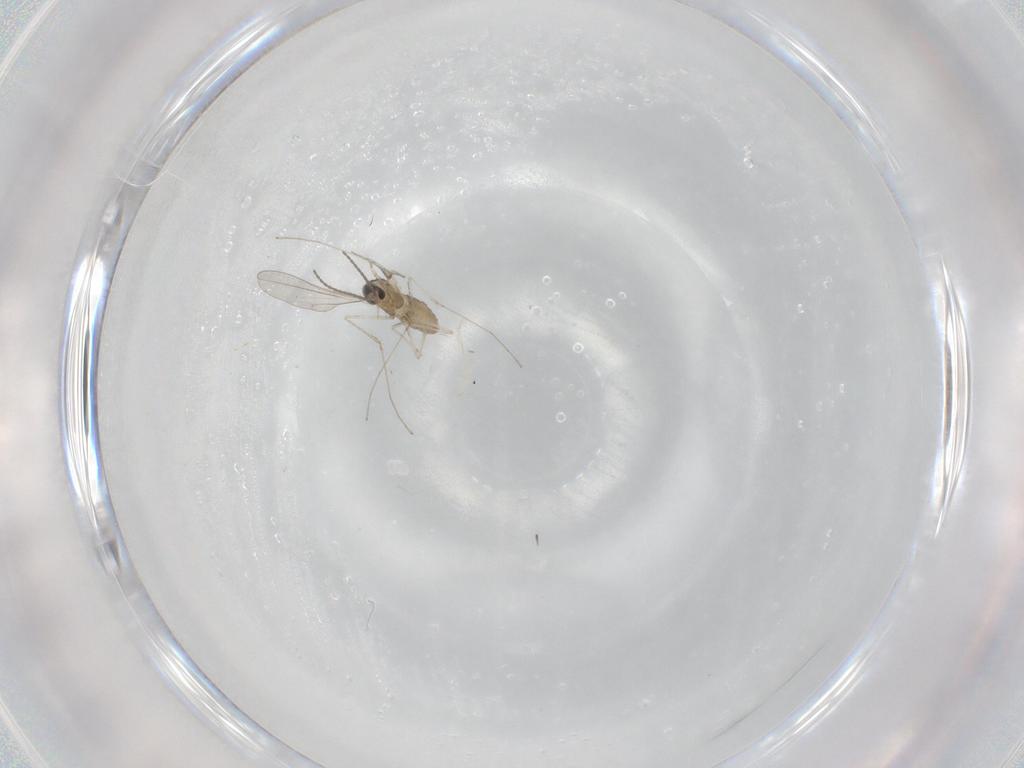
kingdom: Animalia
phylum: Arthropoda
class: Insecta
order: Diptera
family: Cecidomyiidae
